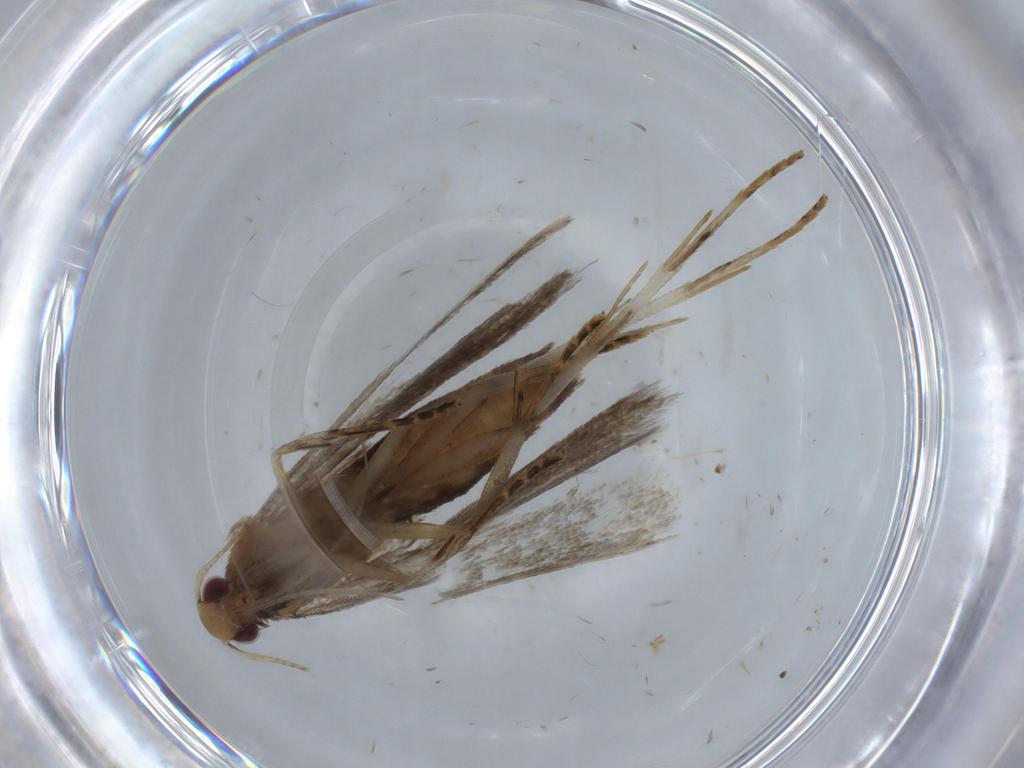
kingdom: Animalia
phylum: Arthropoda
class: Insecta
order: Lepidoptera
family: Gelechiidae
